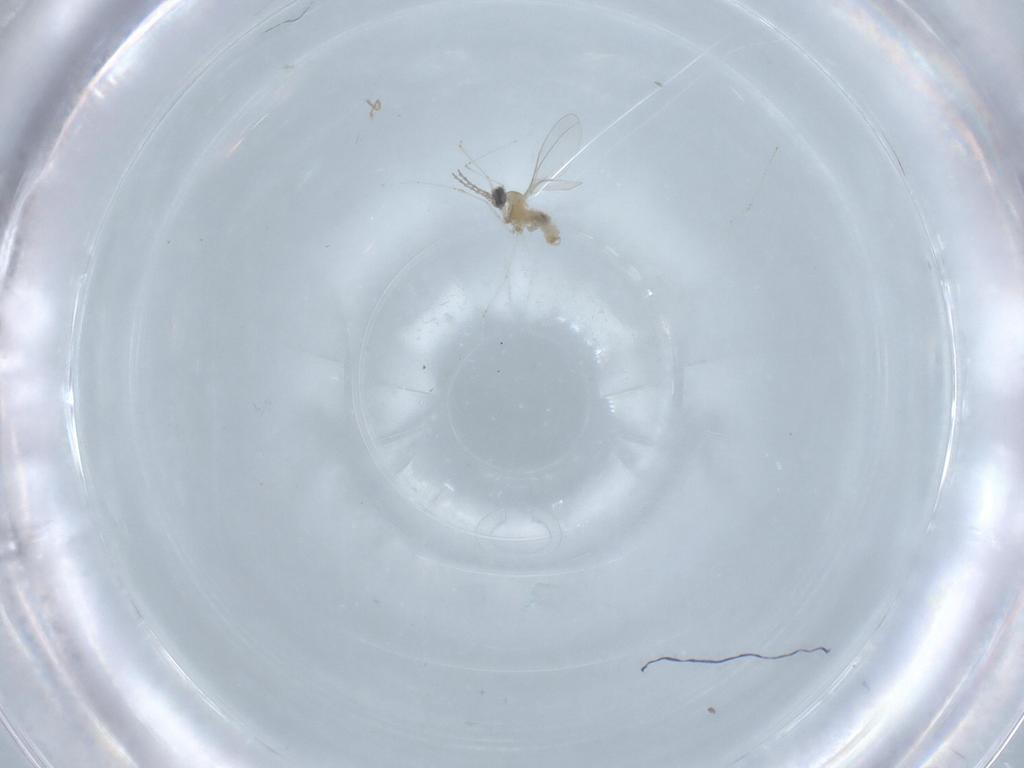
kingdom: Animalia
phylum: Arthropoda
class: Insecta
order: Diptera
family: Cecidomyiidae
